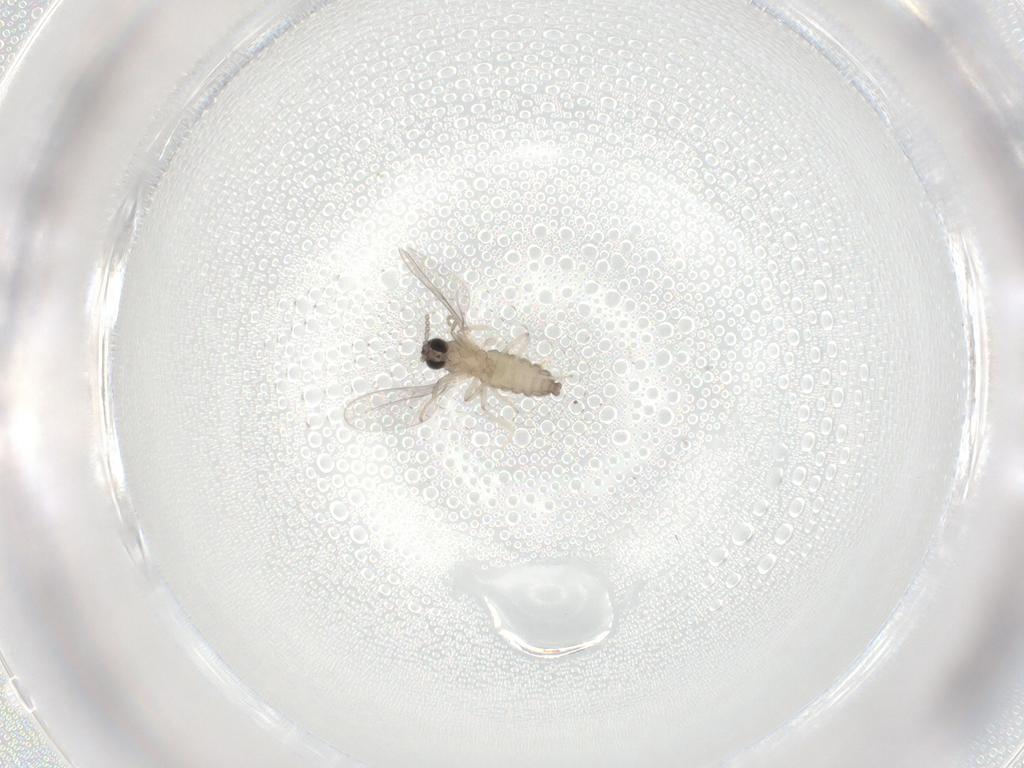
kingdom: Animalia
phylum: Arthropoda
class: Insecta
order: Diptera
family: Cecidomyiidae
